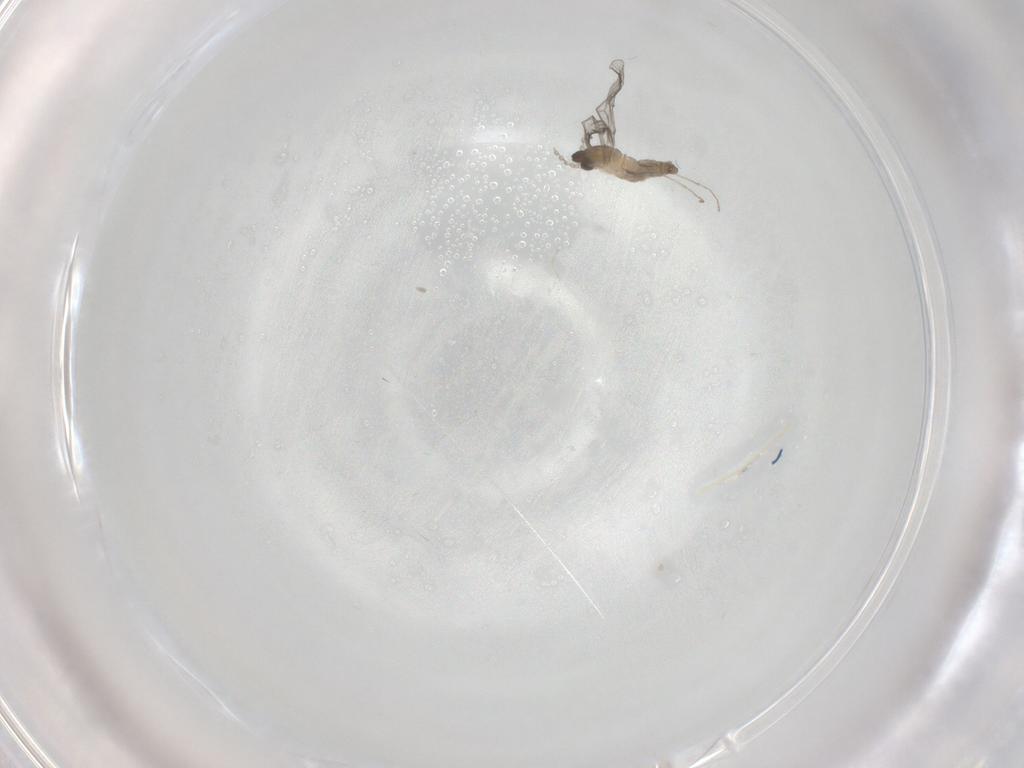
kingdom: Animalia
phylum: Arthropoda
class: Insecta
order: Diptera
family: Cecidomyiidae
